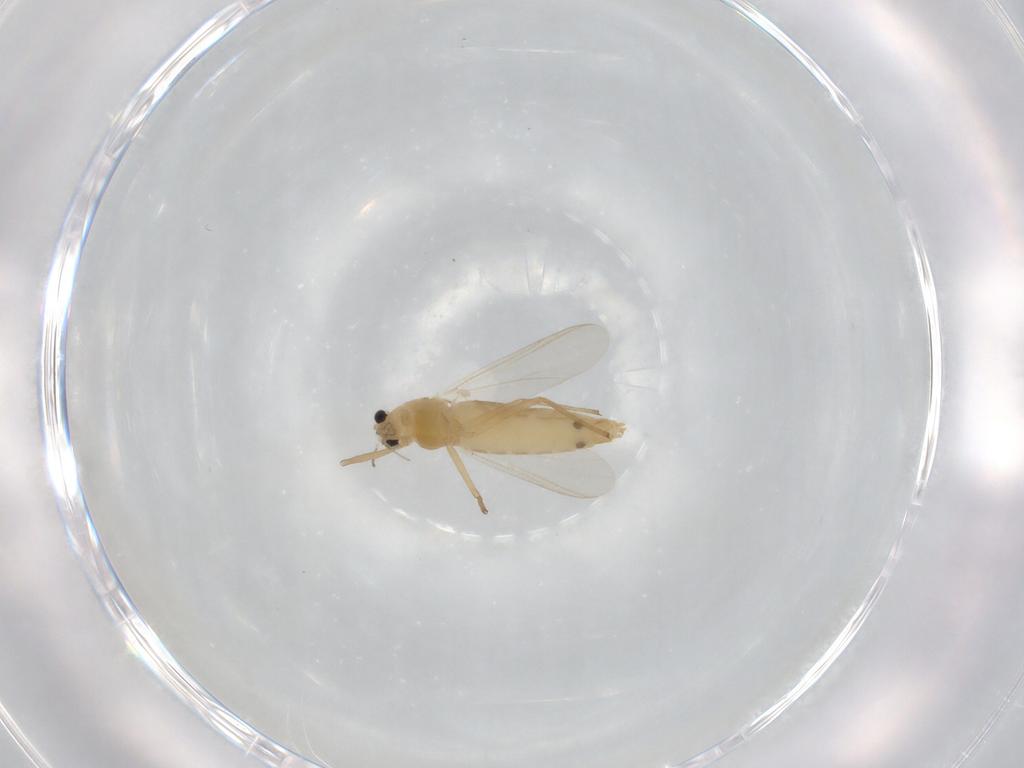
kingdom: Animalia
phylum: Arthropoda
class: Insecta
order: Diptera
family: Chironomidae
